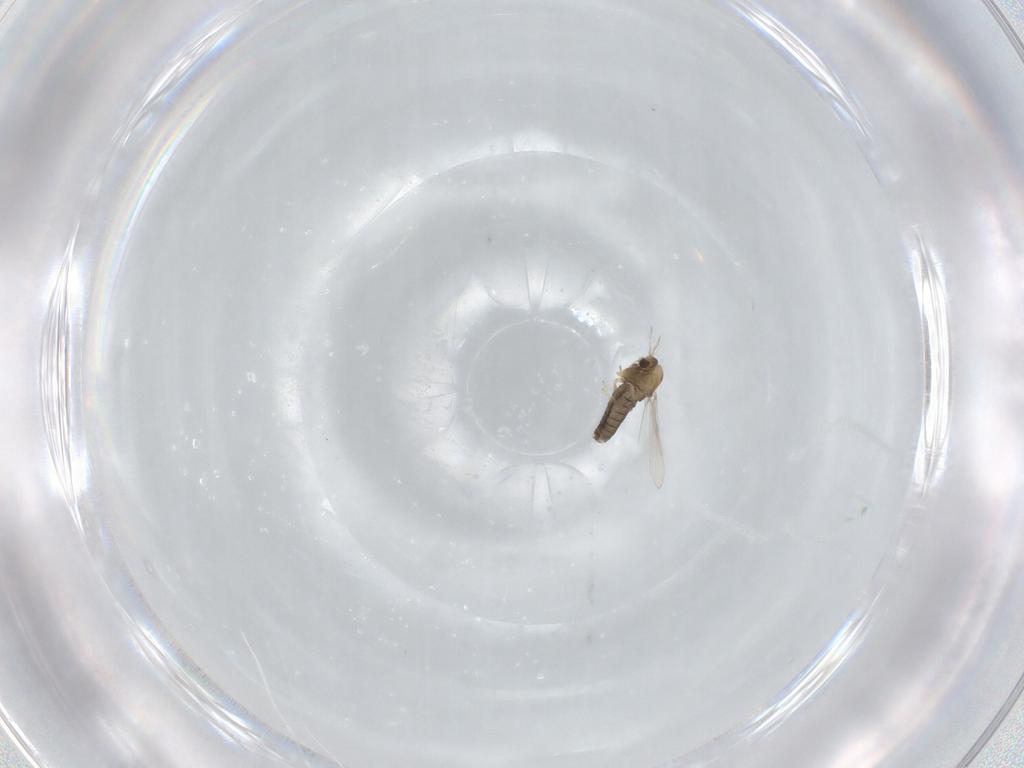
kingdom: Animalia
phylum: Arthropoda
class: Insecta
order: Diptera
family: Chironomidae
